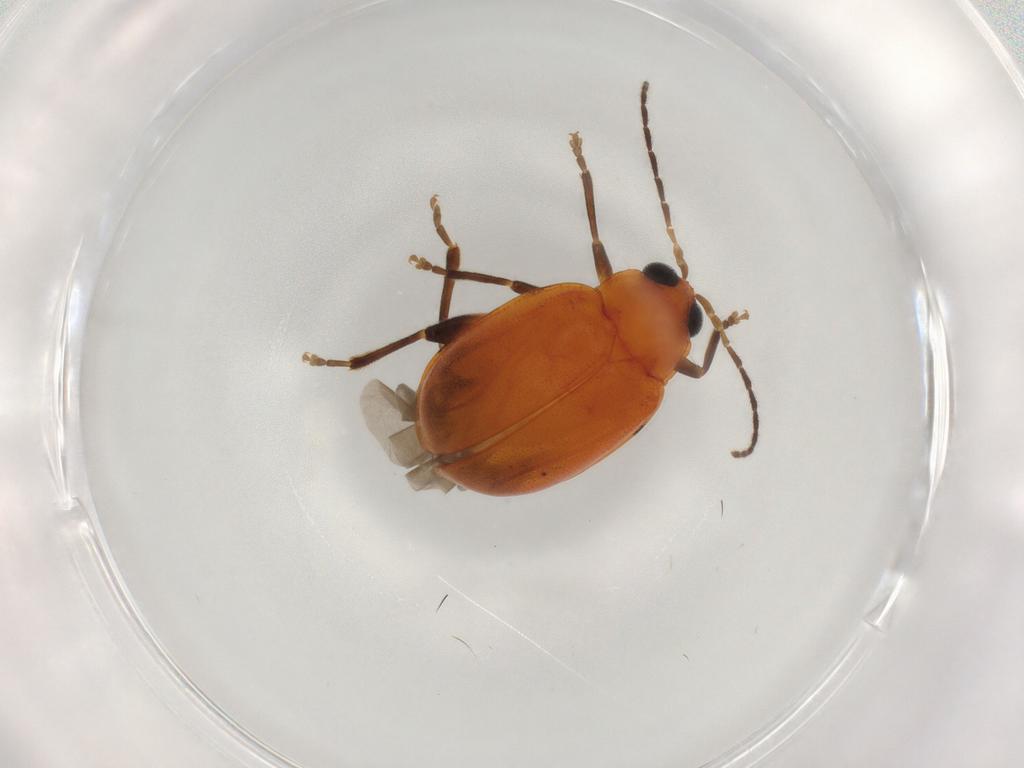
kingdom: Animalia
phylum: Arthropoda
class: Insecta
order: Coleoptera
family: Chrysomelidae
